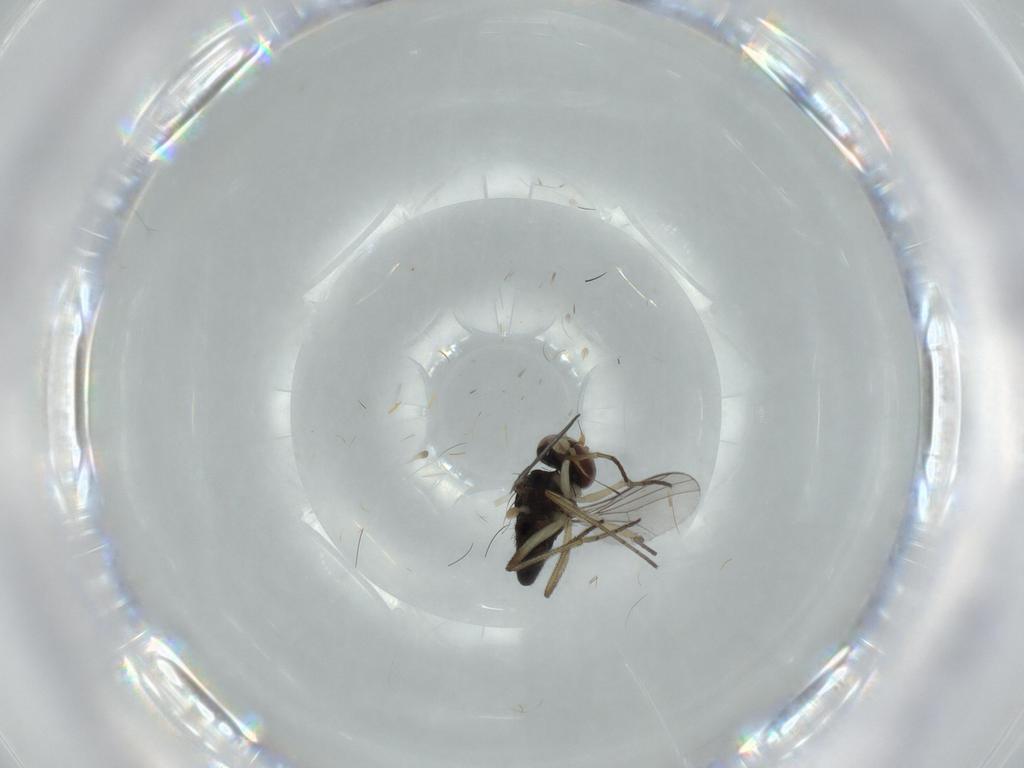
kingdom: Animalia
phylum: Arthropoda
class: Insecta
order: Diptera
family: Dolichopodidae
